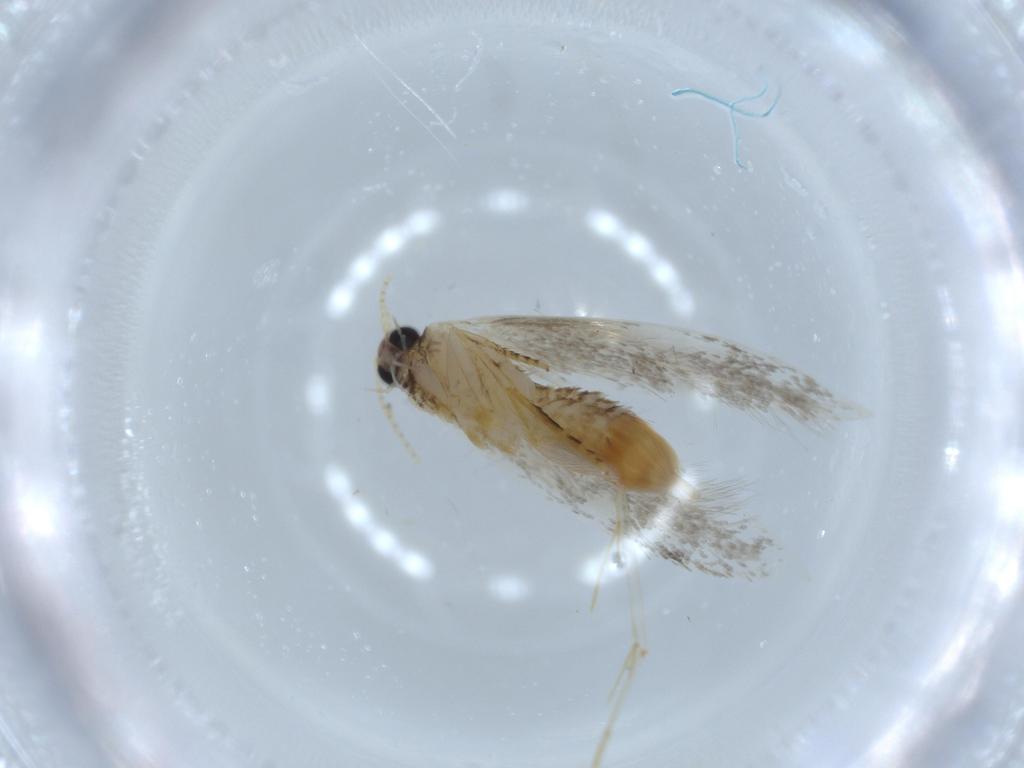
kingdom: Animalia
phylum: Arthropoda
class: Insecta
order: Lepidoptera
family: Tineidae
